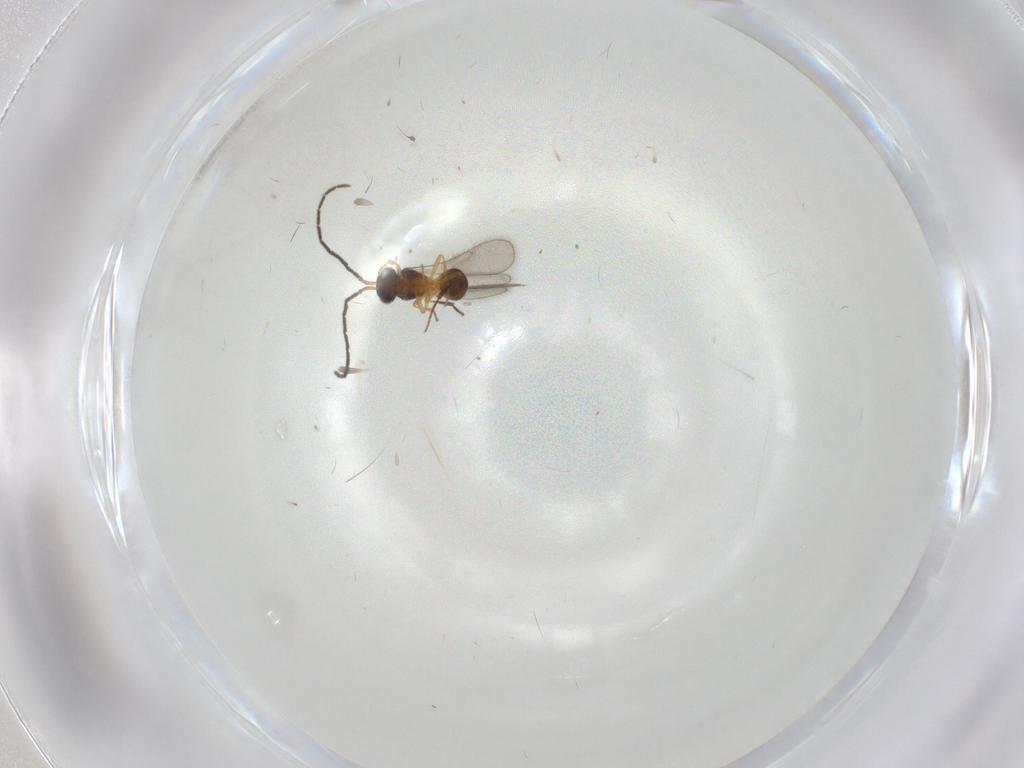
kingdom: Animalia
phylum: Arthropoda
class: Insecta
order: Hymenoptera
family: Scelionidae
